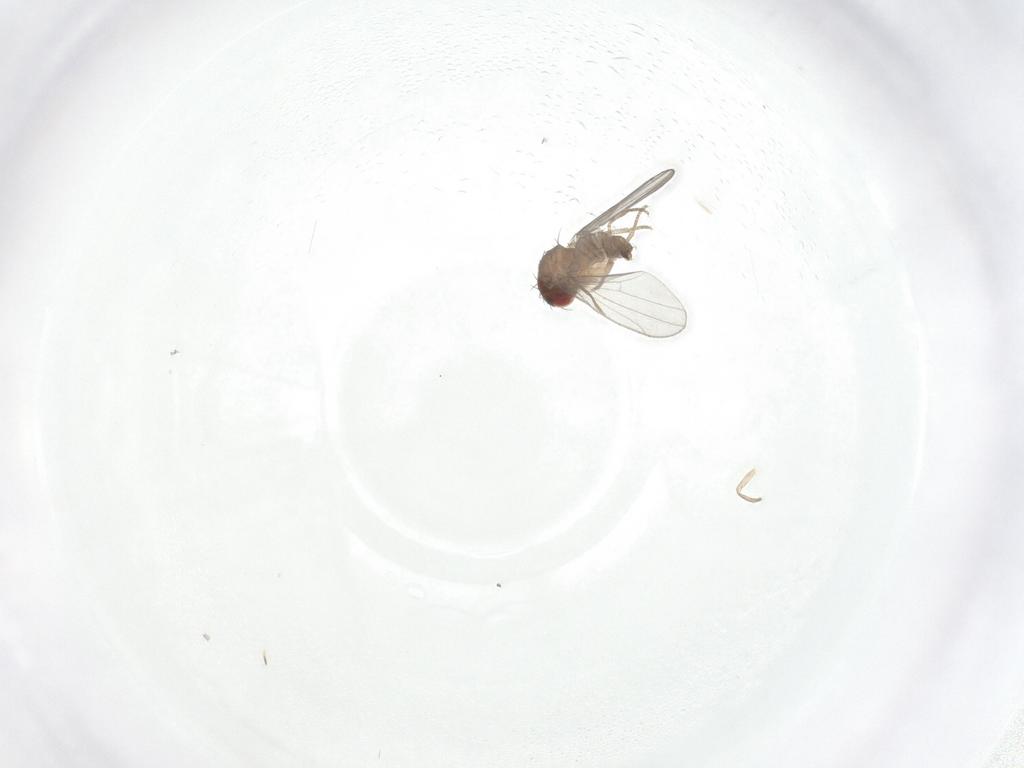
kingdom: Animalia
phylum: Arthropoda
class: Insecta
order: Diptera
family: Drosophilidae
